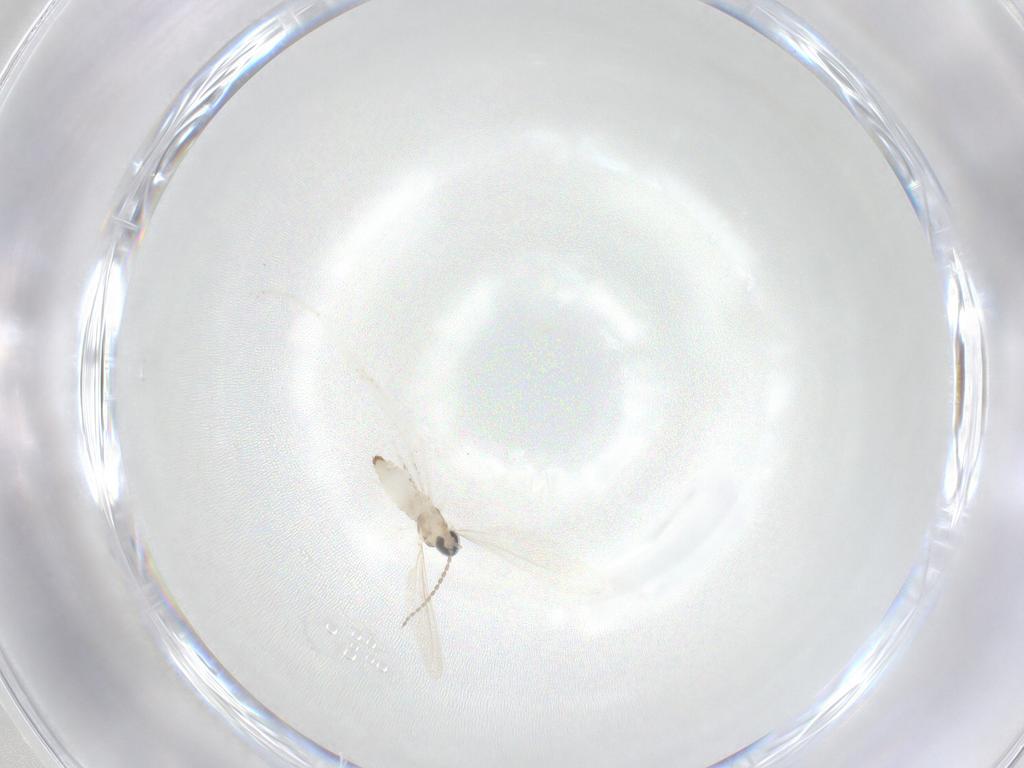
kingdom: Animalia
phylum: Arthropoda
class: Insecta
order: Diptera
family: Cecidomyiidae
